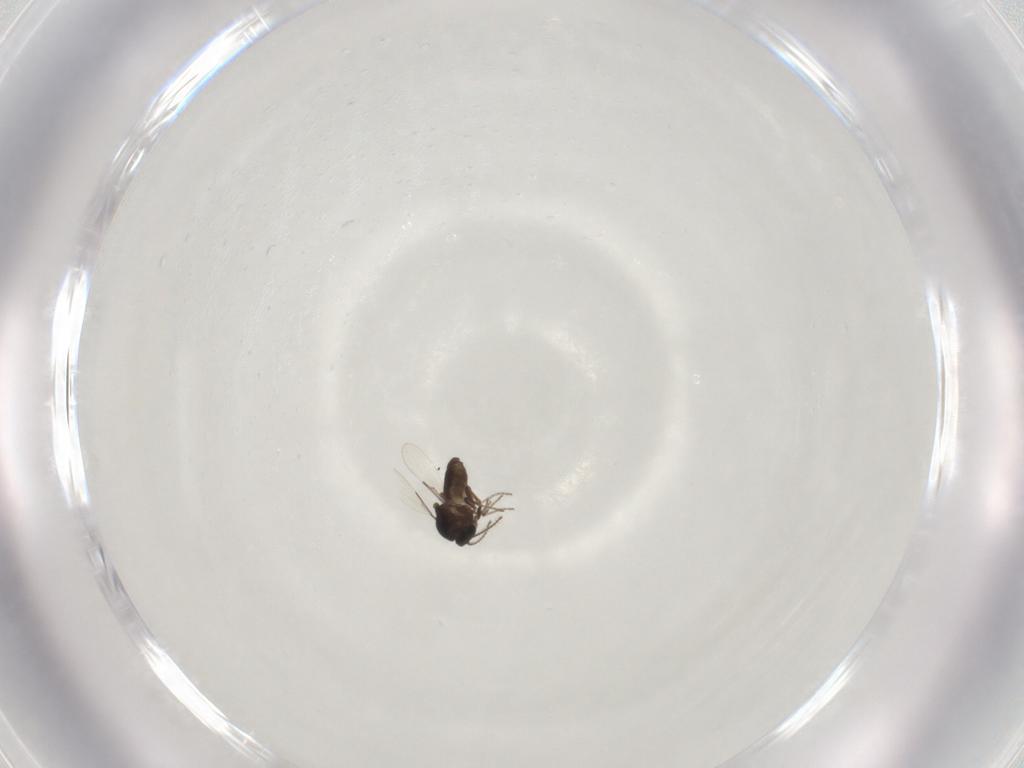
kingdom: Animalia
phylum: Arthropoda
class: Insecta
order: Diptera
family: Ceratopogonidae
